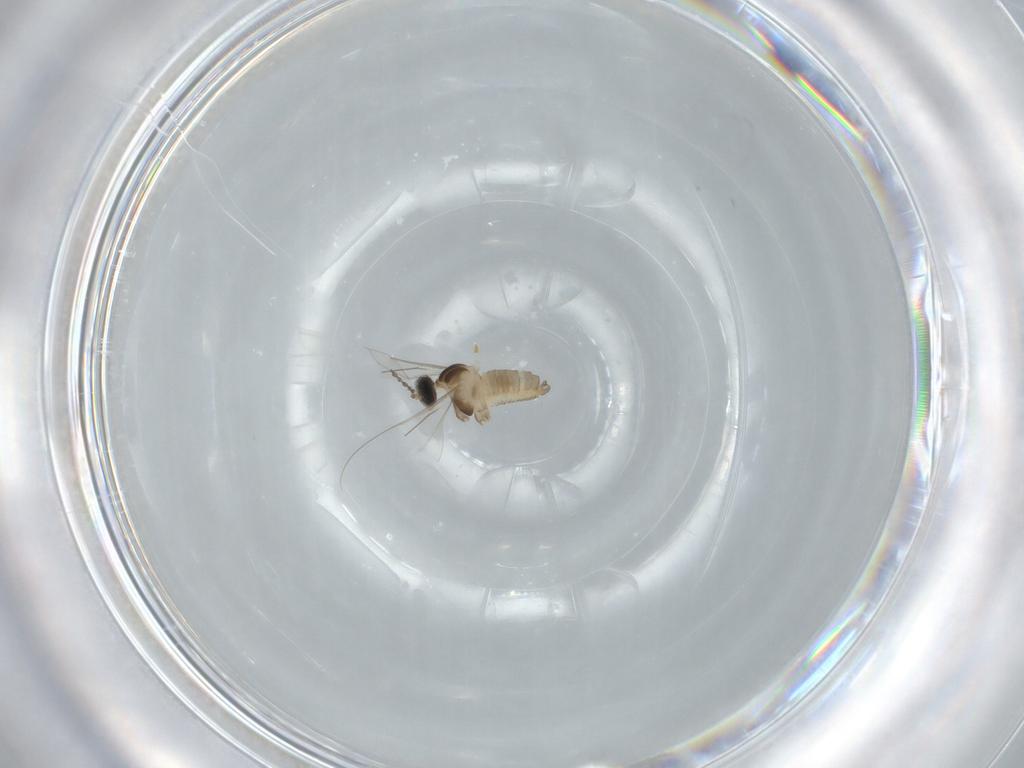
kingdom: Animalia
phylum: Arthropoda
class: Insecta
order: Diptera
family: Cecidomyiidae
